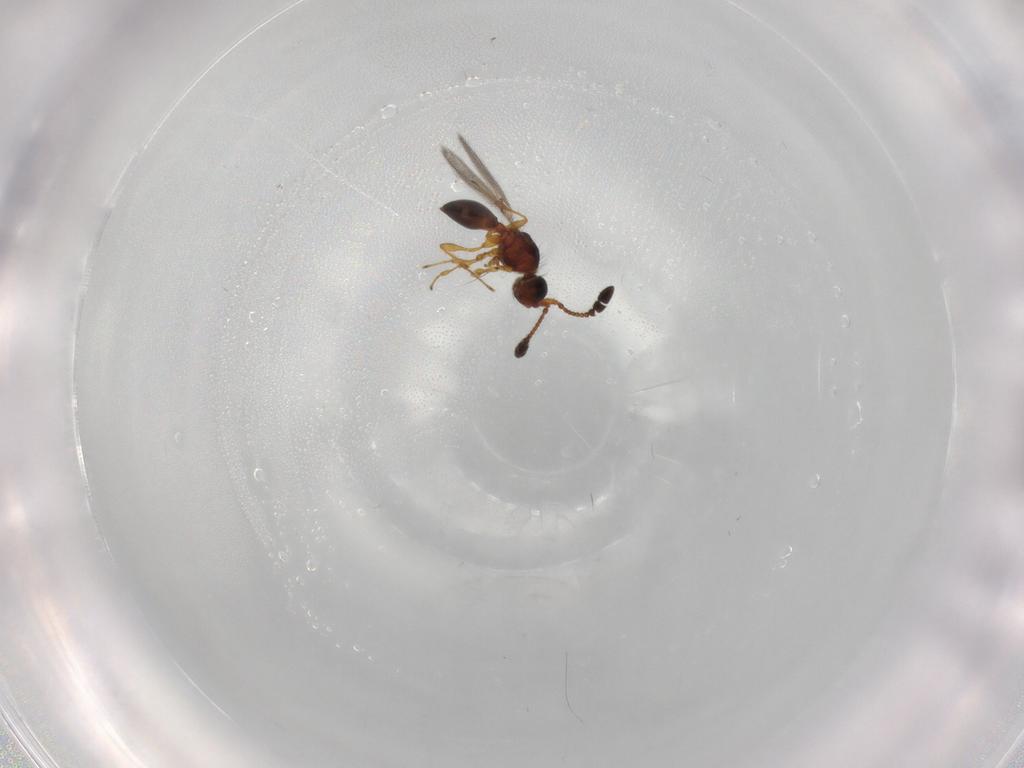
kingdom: Animalia
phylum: Arthropoda
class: Insecta
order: Hymenoptera
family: Diapriidae
